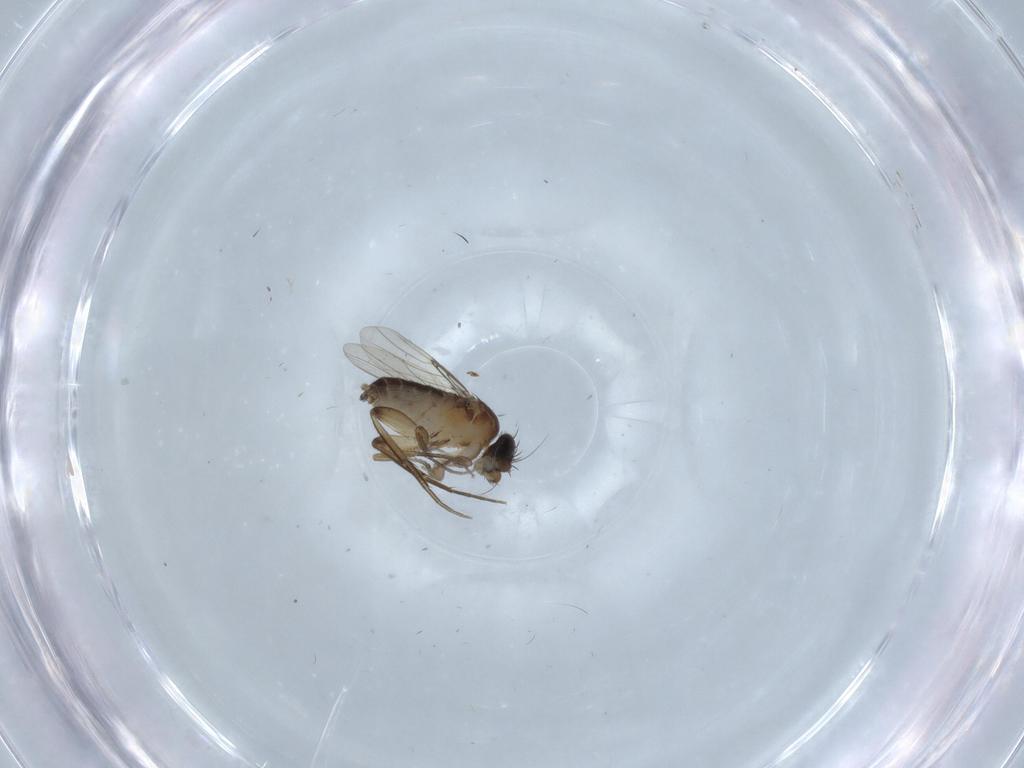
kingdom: Animalia
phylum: Arthropoda
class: Insecta
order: Diptera
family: Phoridae
